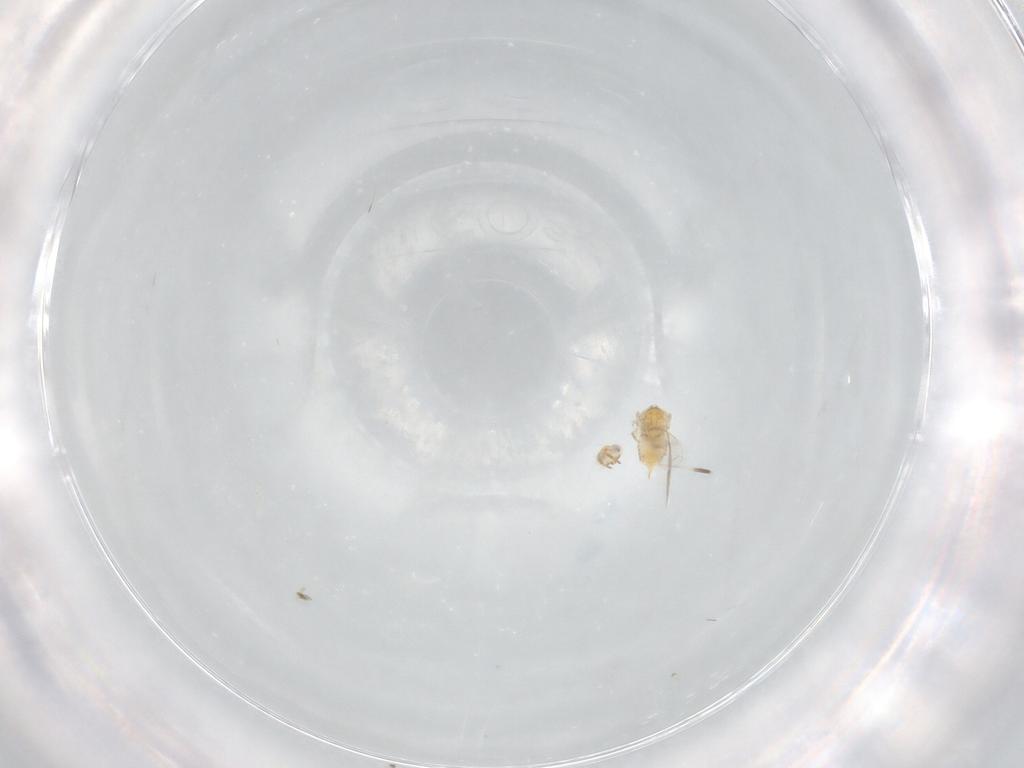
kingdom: Animalia
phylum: Arthropoda
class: Insecta
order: Hymenoptera
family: Aphelinidae
